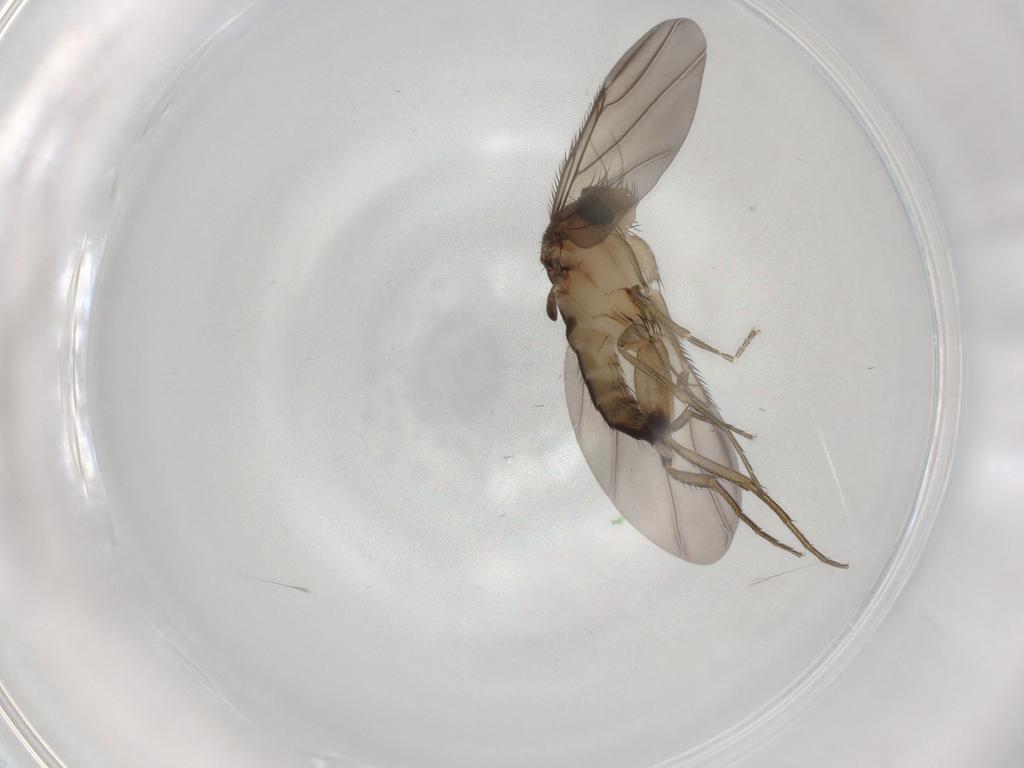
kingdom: Animalia
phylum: Arthropoda
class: Insecta
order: Diptera
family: Phoridae
